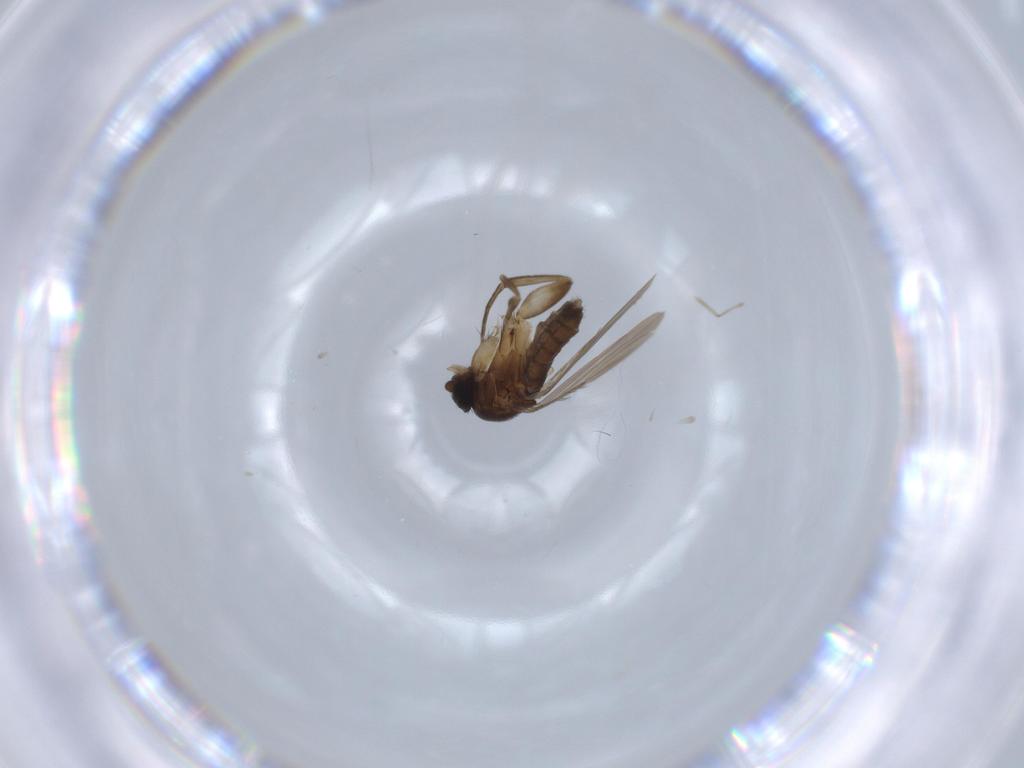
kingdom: Animalia
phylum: Arthropoda
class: Insecta
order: Diptera
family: Phoridae
